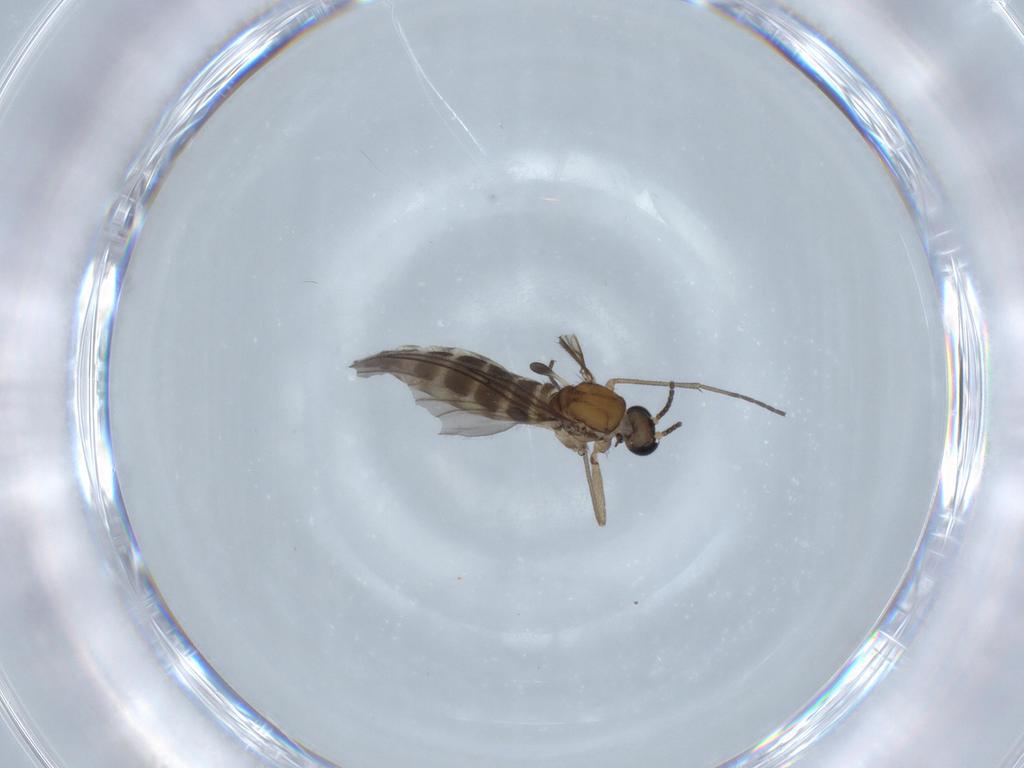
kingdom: Animalia
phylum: Arthropoda
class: Insecta
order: Diptera
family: Sciaridae
